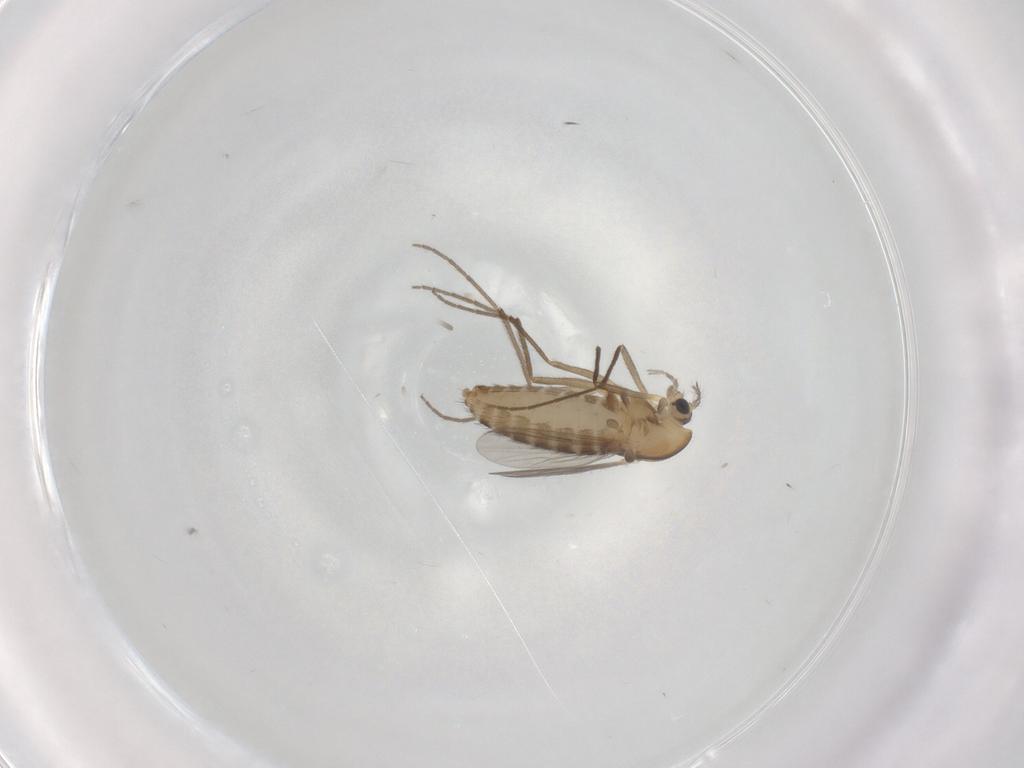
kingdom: Animalia
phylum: Arthropoda
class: Insecta
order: Diptera
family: Chironomidae
